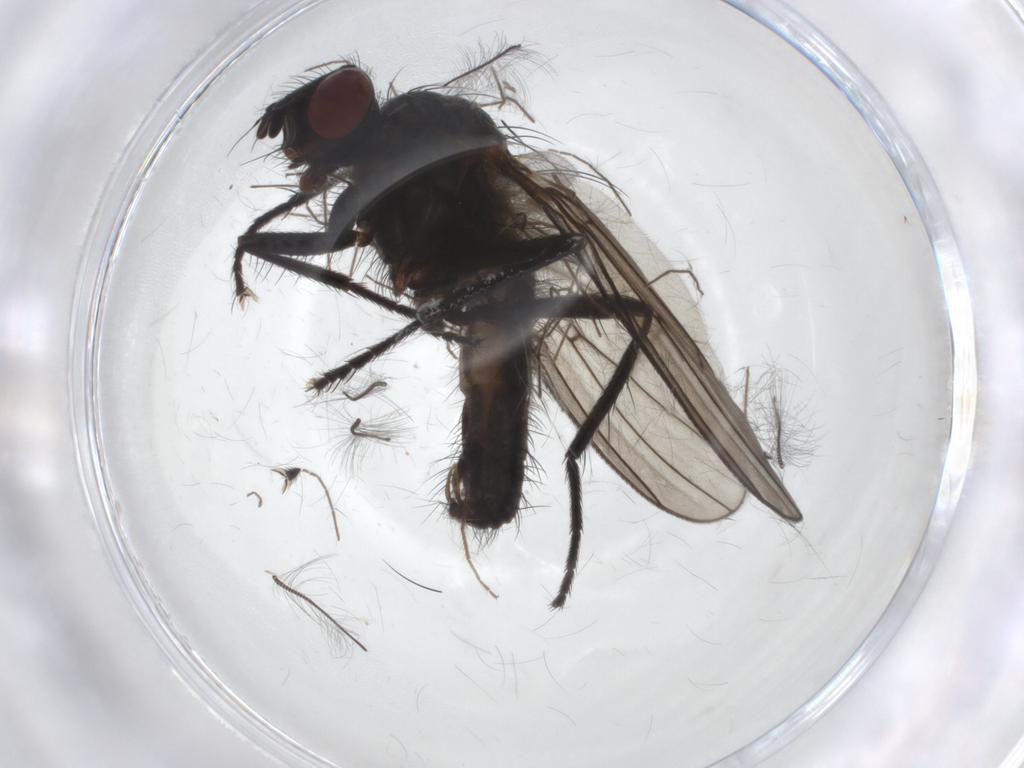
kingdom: Animalia
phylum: Arthropoda
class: Insecta
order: Diptera
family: Anthomyiidae
